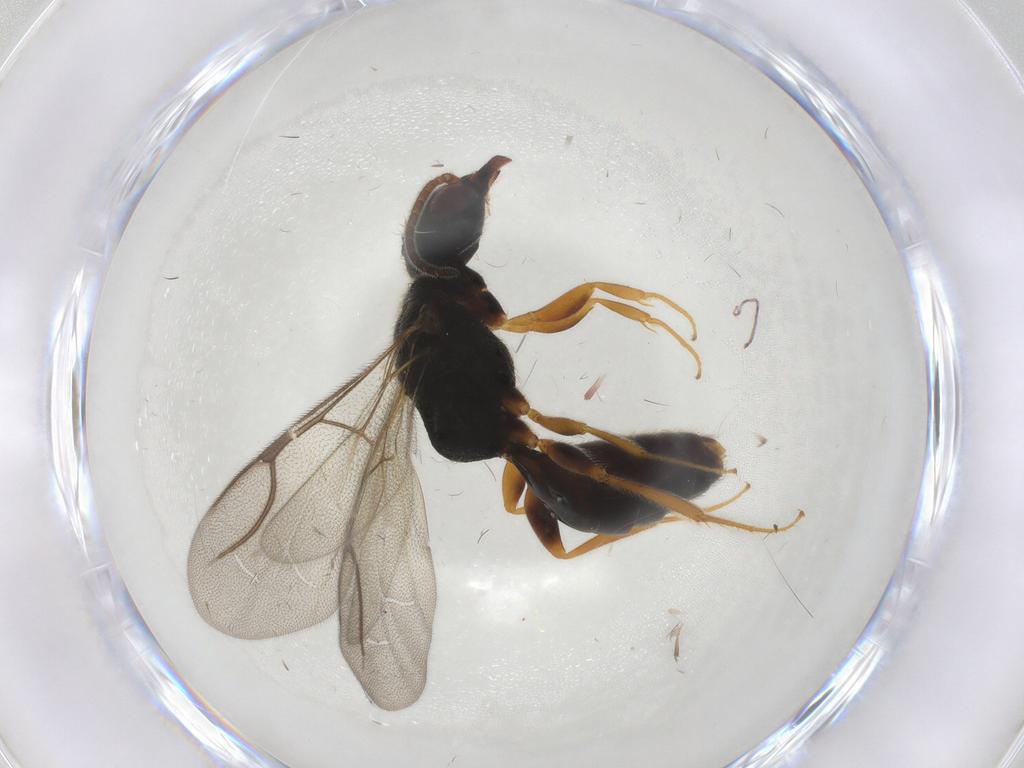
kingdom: Animalia
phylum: Arthropoda
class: Insecta
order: Hymenoptera
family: Bethylidae
